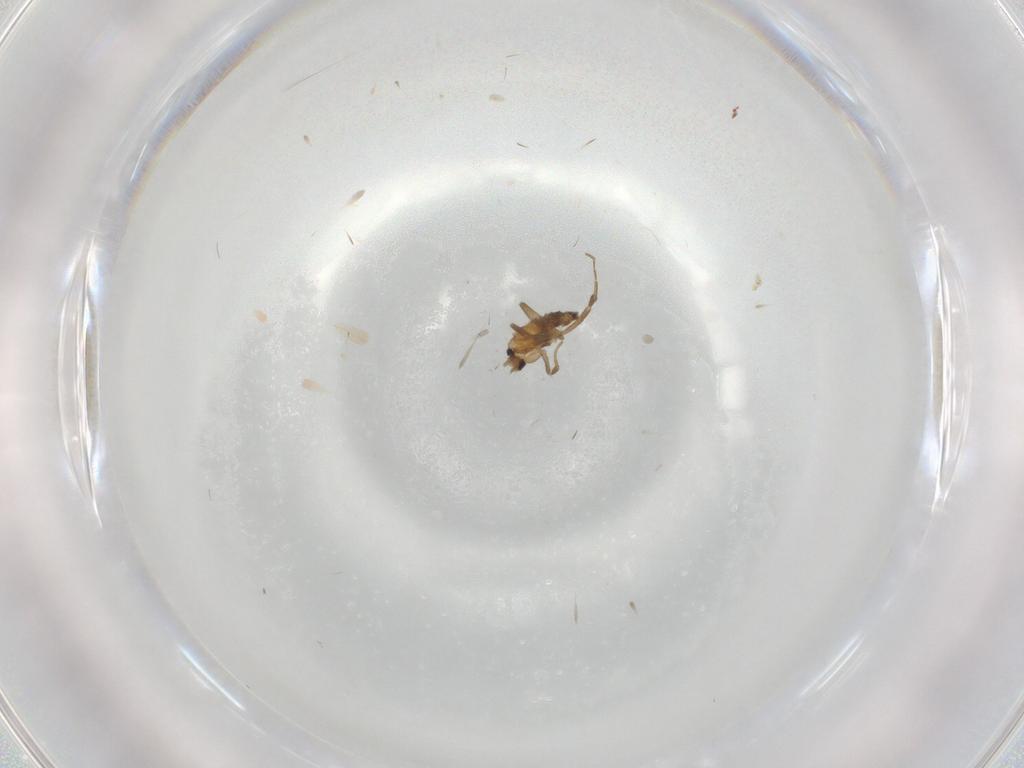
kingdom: Animalia
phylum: Arthropoda
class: Insecta
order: Diptera
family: Cecidomyiidae
